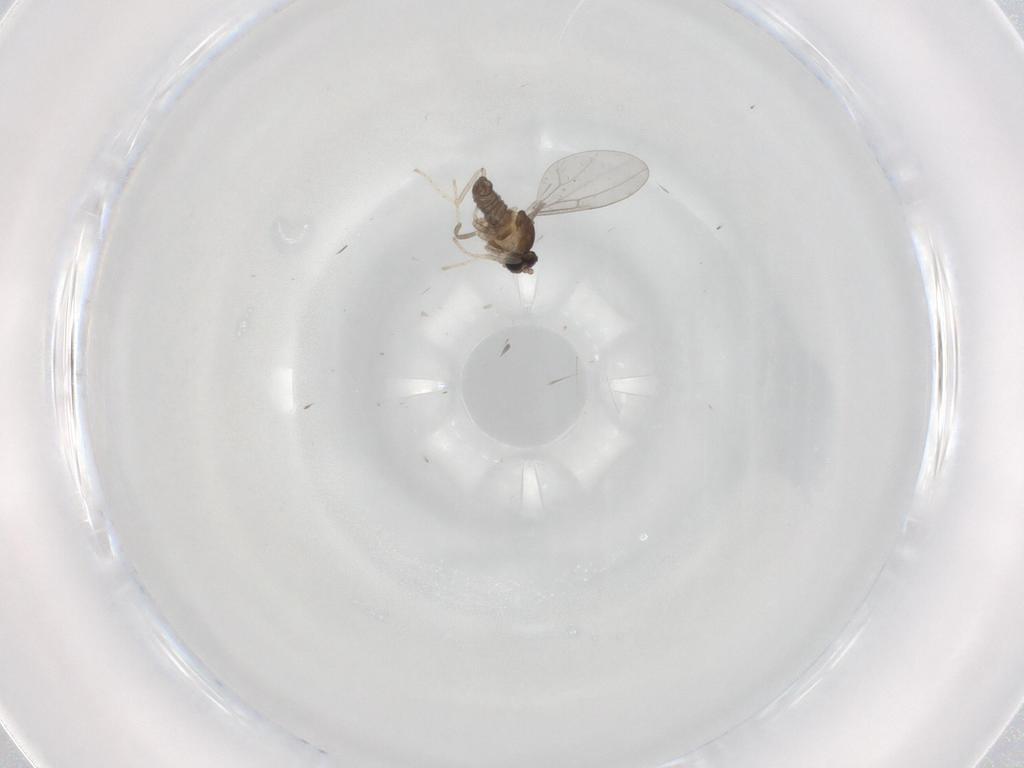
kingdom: Animalia
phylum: Arthropoda
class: Insecta
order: Diptera
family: Cecidomyiidae
